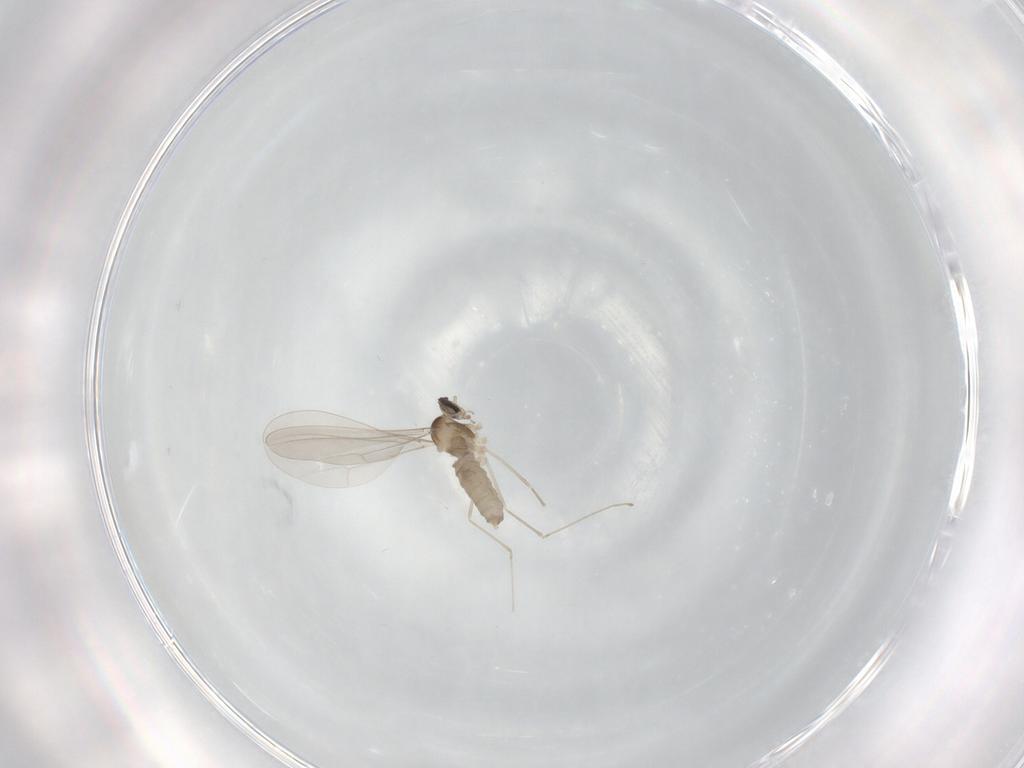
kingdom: Animalia
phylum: Arthropoda
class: Insecta
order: Diptera
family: Cecidomyiidae
